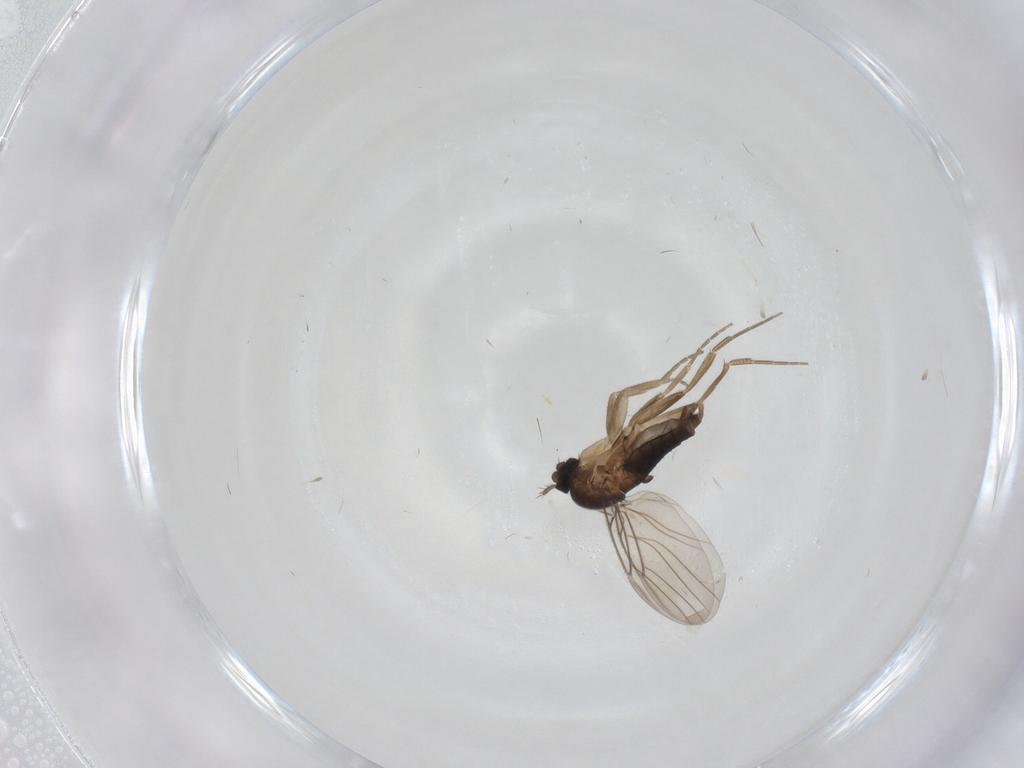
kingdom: Animalia
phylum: Arthropoda
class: Insecta
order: Diptera
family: Phoridae
